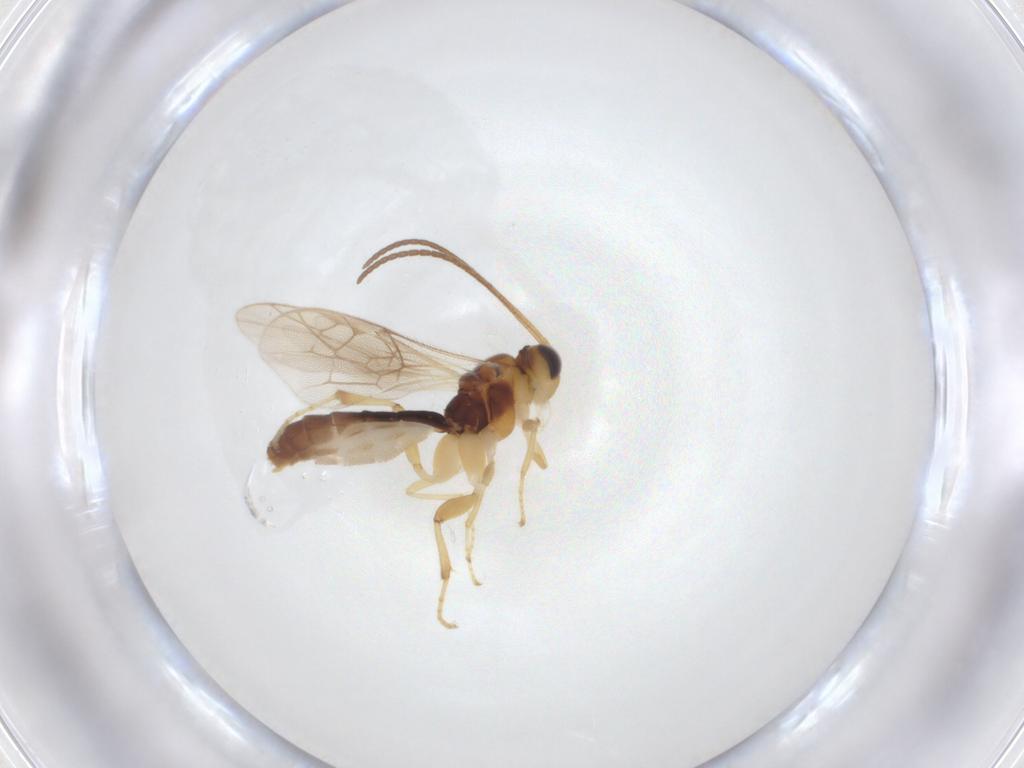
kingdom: Animalia
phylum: Arthropoda
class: Insecta
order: Hymenoptera
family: Ichneumonidae
